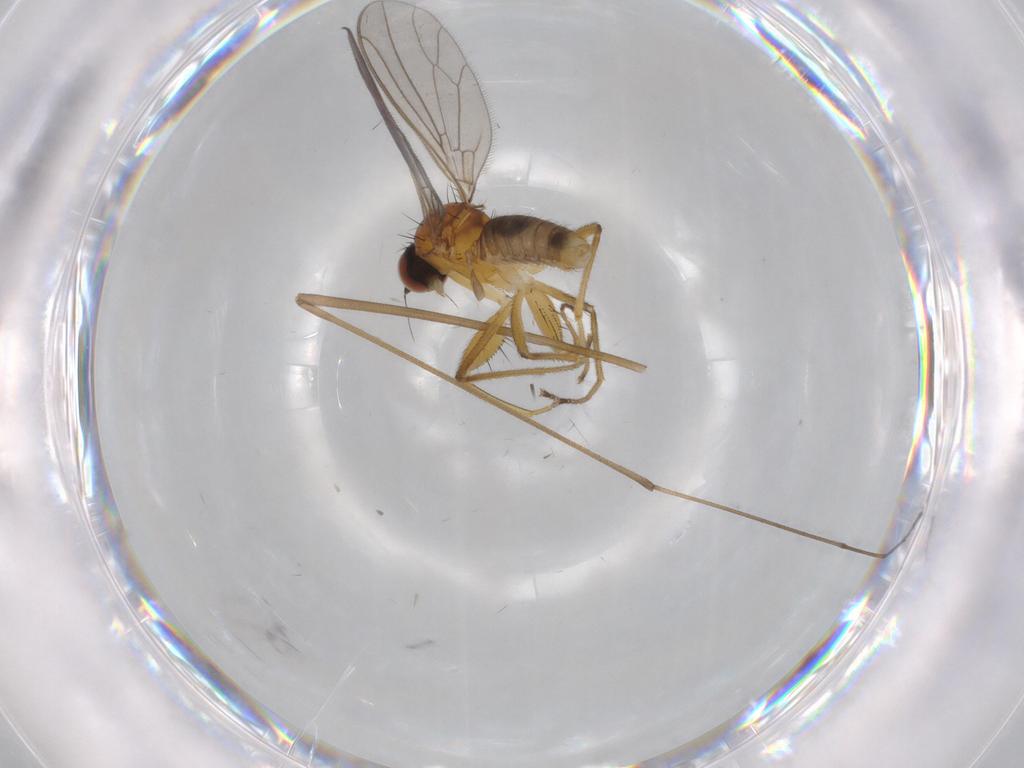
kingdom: Animalia
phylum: Arthropoda
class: Insecta
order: Diptera
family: Empididae
